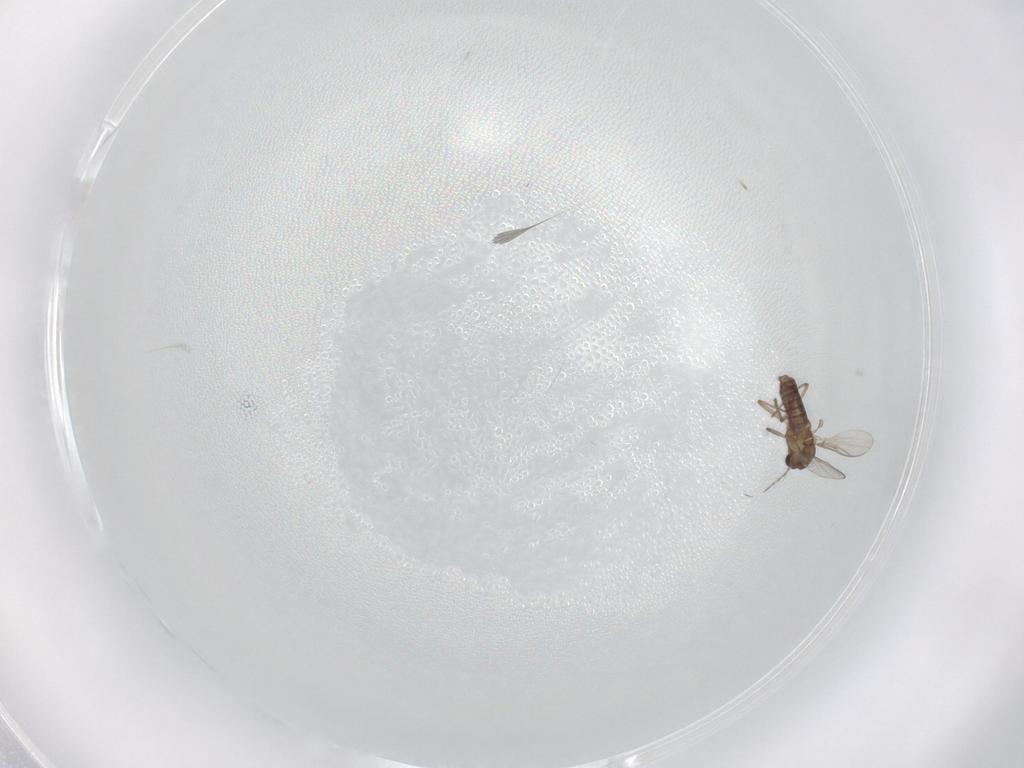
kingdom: Animalia
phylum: Arthropoda
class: Insecta
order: Diptera
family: Chironomidae
